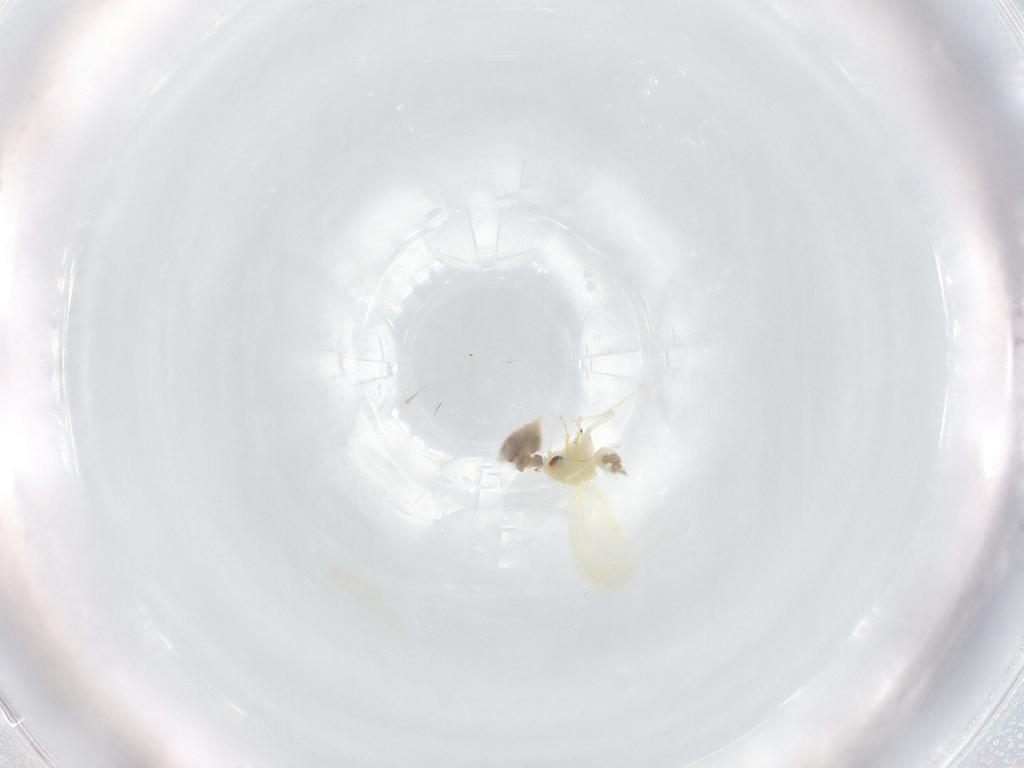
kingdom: Animalia
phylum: Arthropoda
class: Insecta
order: Hemiptera
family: Aleyrodidae
